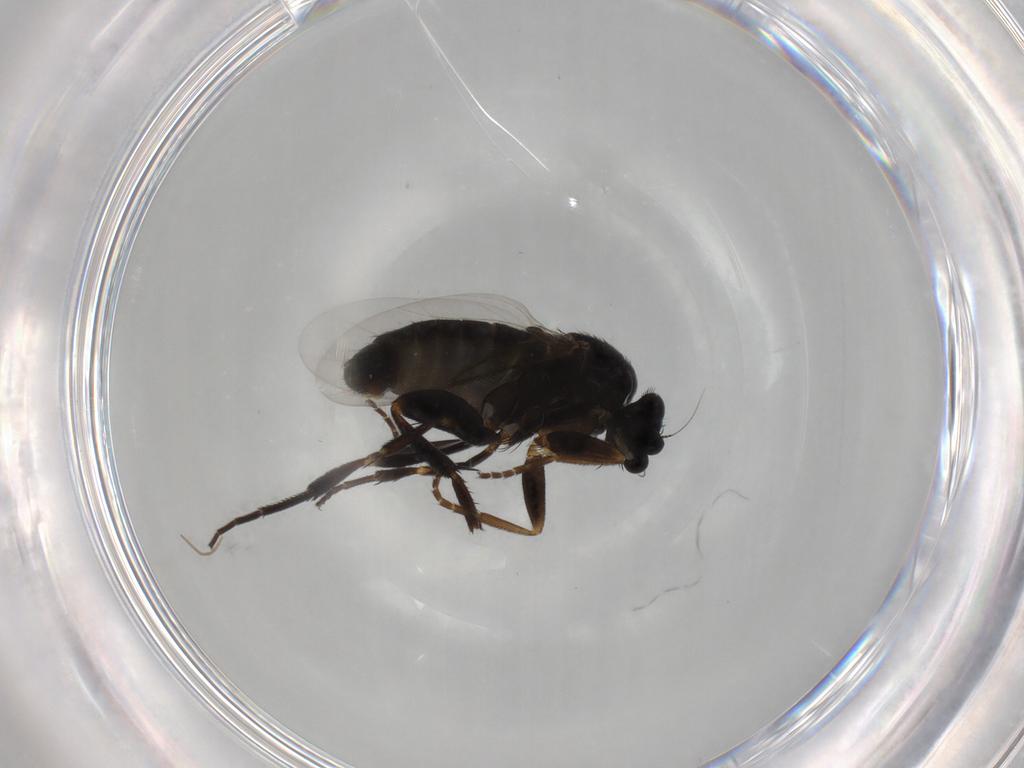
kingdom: Animalia
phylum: Arthropoda
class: Insecta
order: Diptera
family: Phoridae
